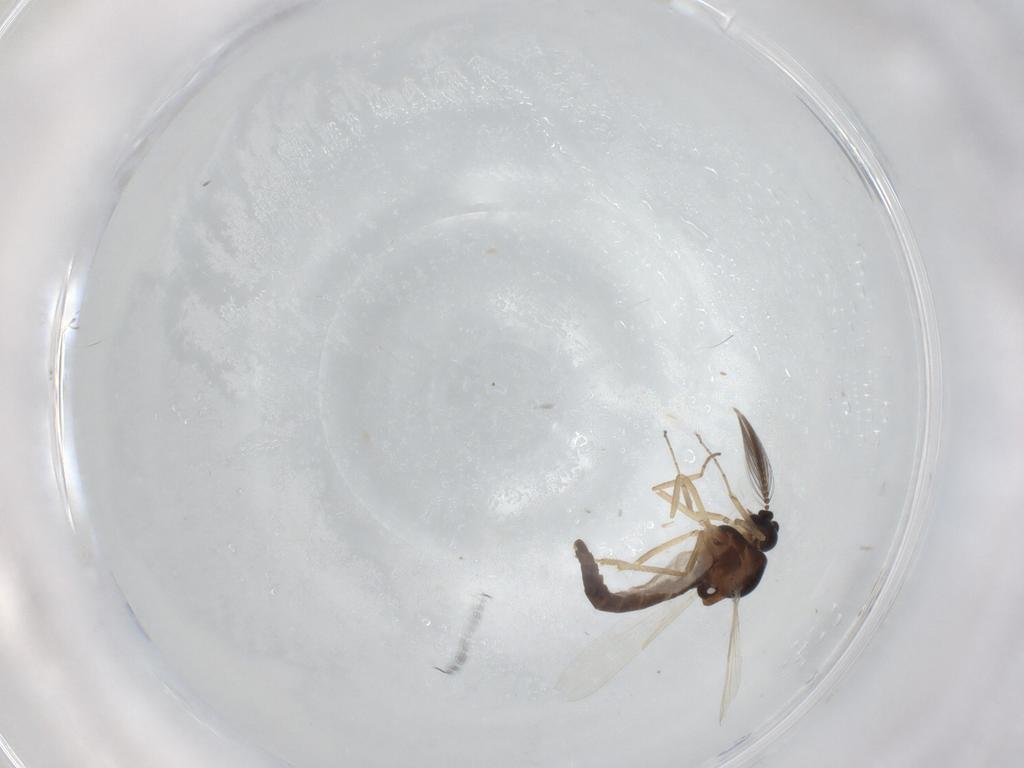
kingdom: Animalia
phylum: Arthropoda
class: Insecta
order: Diptera
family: Ceratopogonidae
